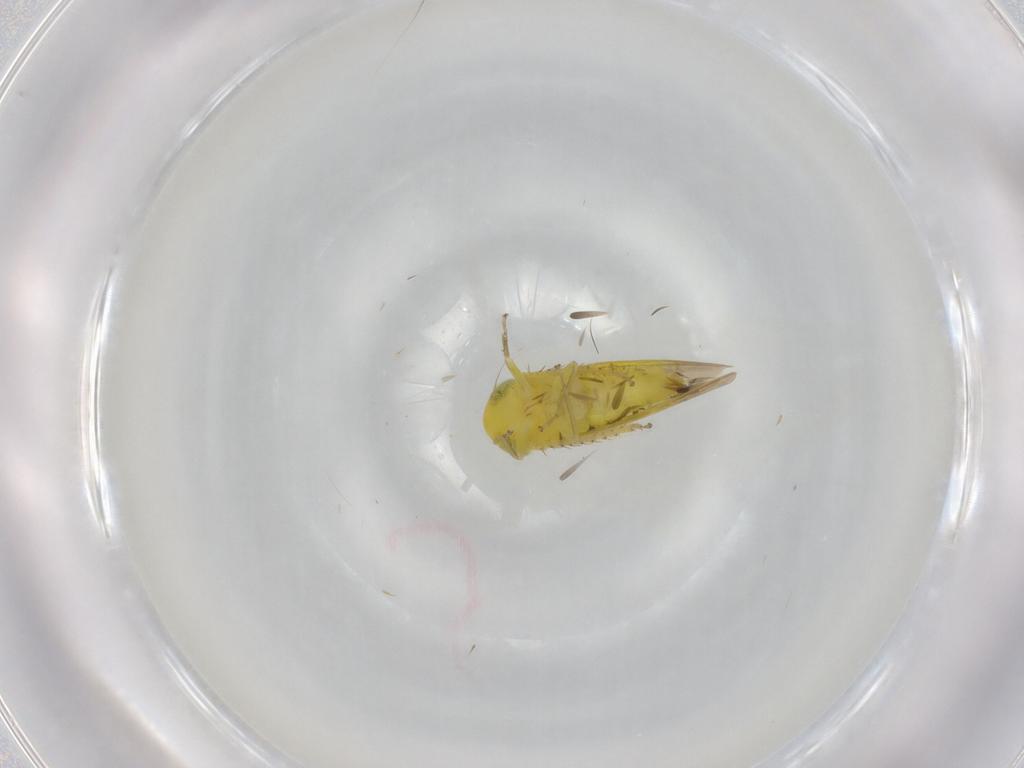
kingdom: Animalia
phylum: Arthropoda
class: Insecta
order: Hemiptera
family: Cicadellidae
